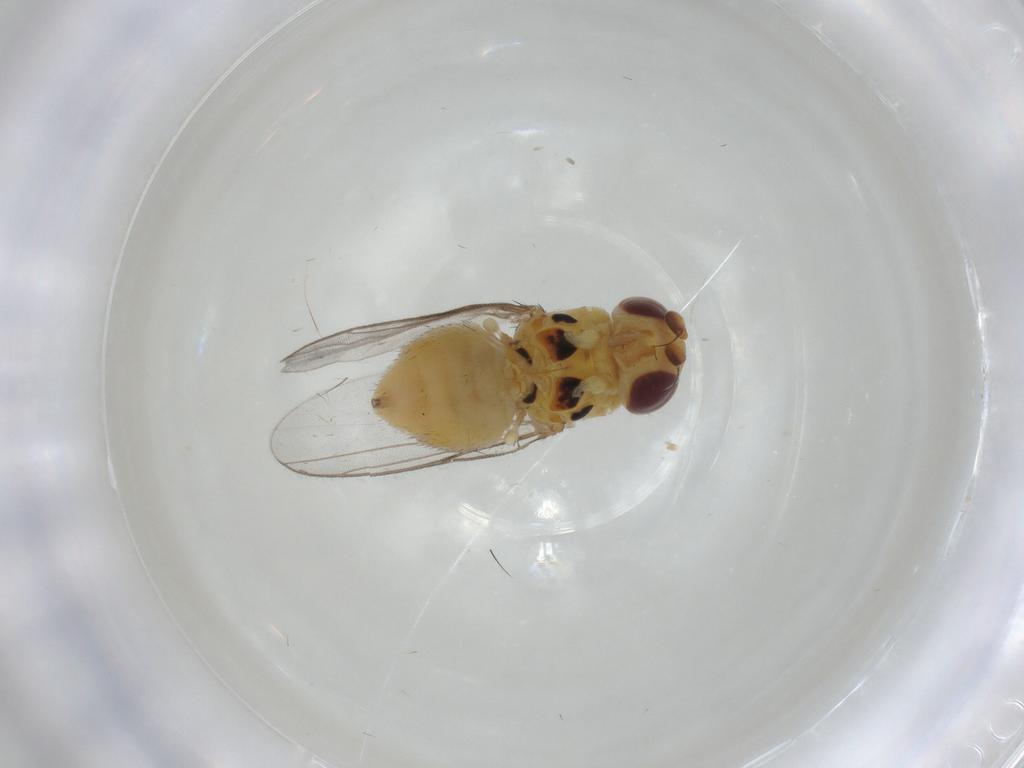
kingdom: Animalia
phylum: Arthropoda
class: Insecta
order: Diptera
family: Chloropidae
